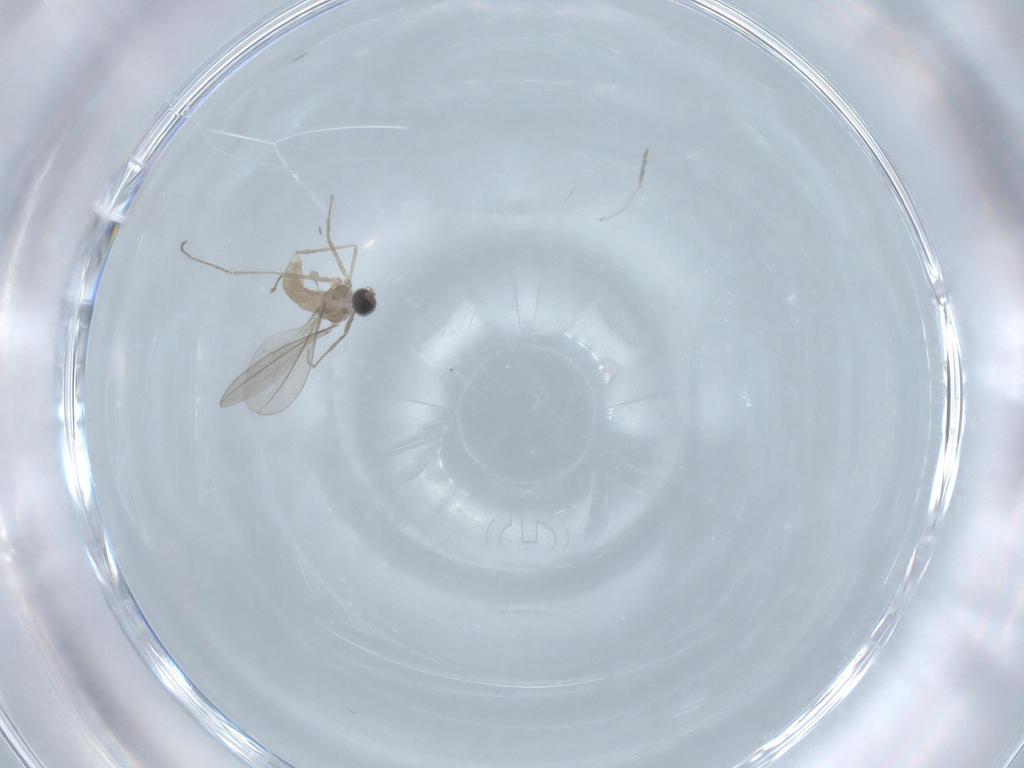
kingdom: Animalia
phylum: Arthropoda
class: Insecta
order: Diptera
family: Cecidomyiidae
